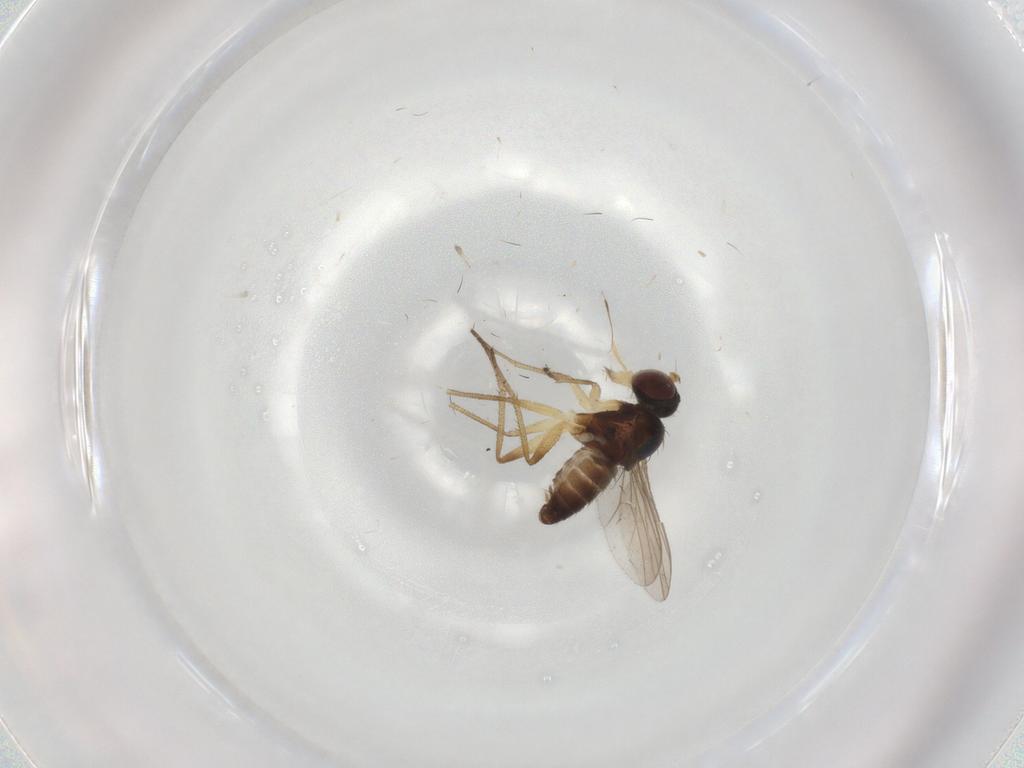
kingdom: Animalia
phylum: Arthropoda
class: Insecta
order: Diptera
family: Dolichopodidae
